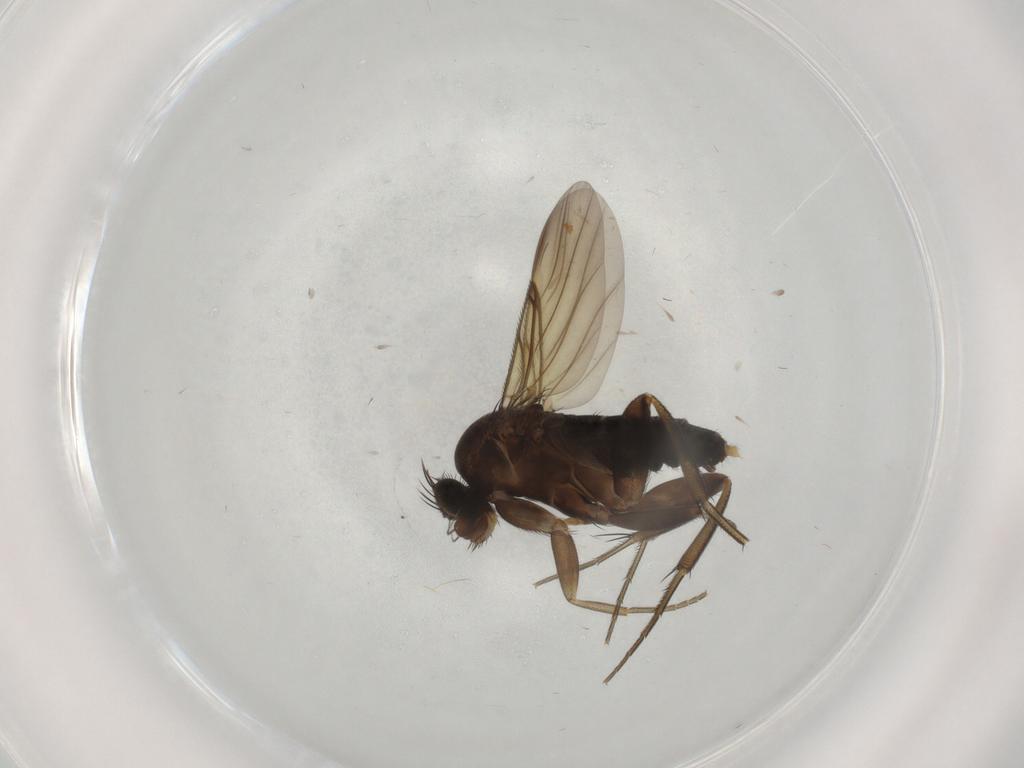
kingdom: Animalia
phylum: Arthropoda
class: Insecta
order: Diptera
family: Phoridae
